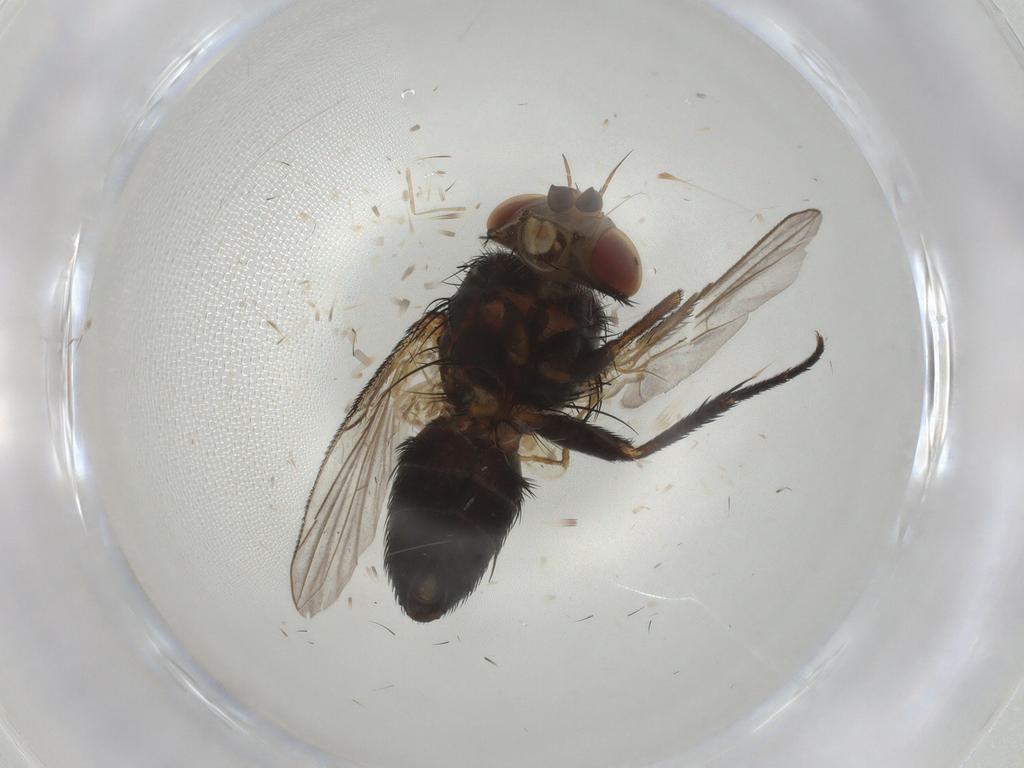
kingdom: Animalia
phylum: Arthropoda
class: Insecta
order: Diptera
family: Tachinidae
